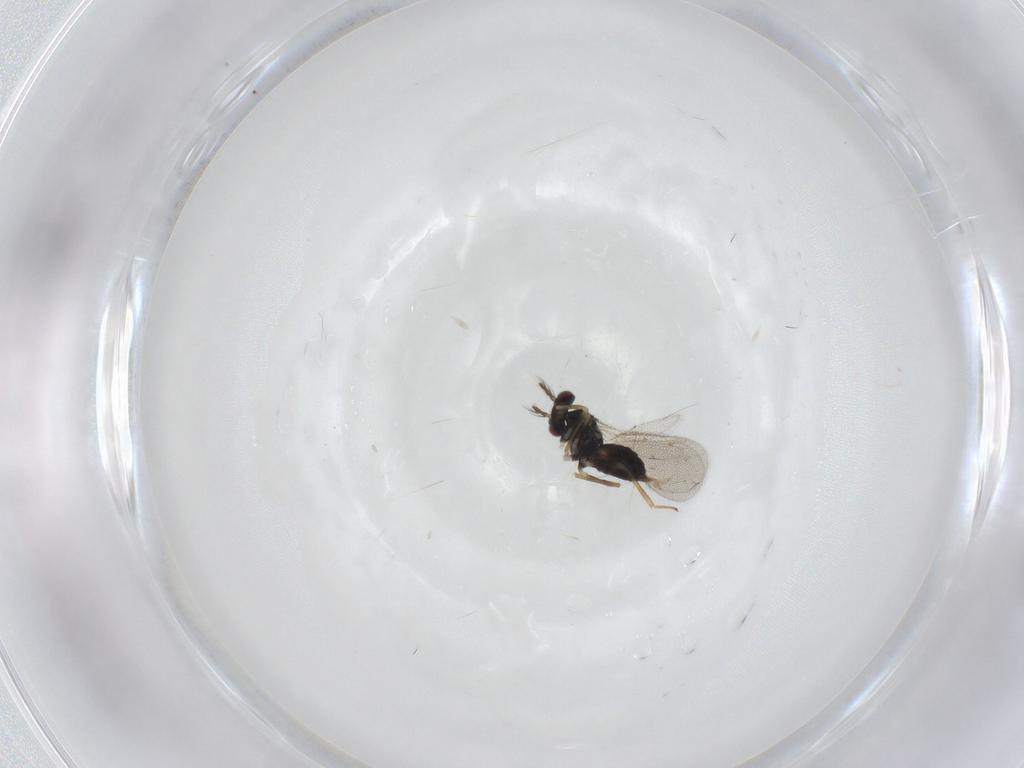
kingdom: Animalia
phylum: Arthropoda
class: Insecta
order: Hymenoptera
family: Eulophidae
